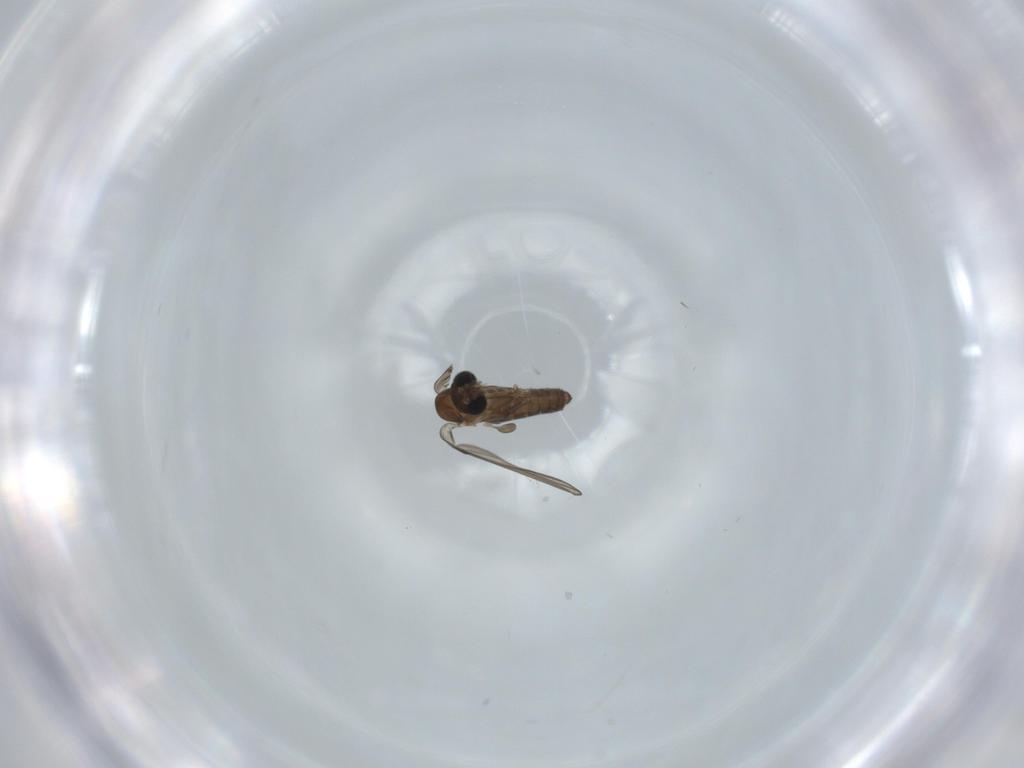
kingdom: Animalia
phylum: Arthropoda
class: Insecta
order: Diptera
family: Psychodidae
